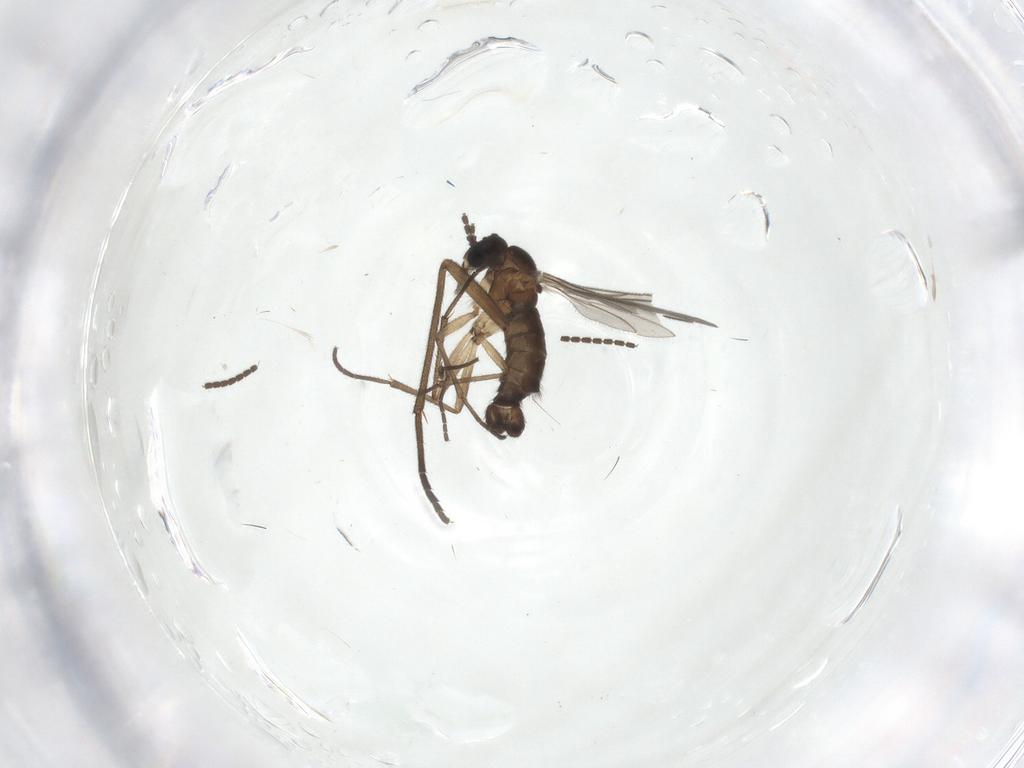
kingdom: Animalia
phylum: Arthropoda
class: Insecta
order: Diptera
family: Sciaridae
